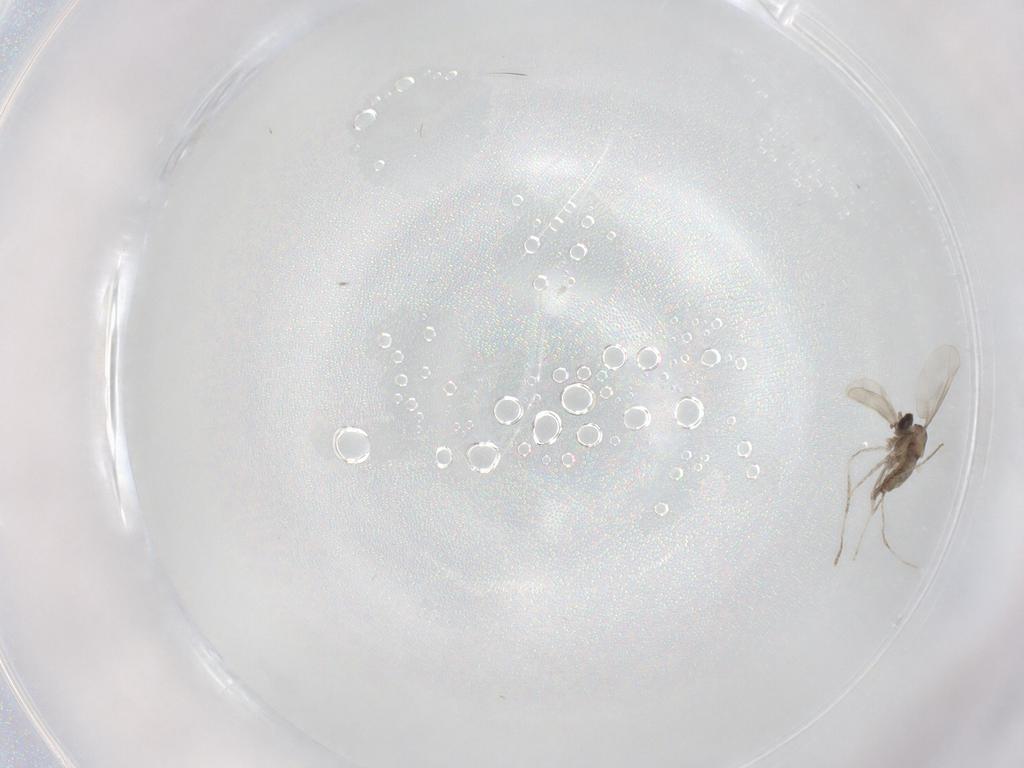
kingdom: Animalia
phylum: Arthropoda
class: Insecta
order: Diptera
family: Cecidomyiidae
